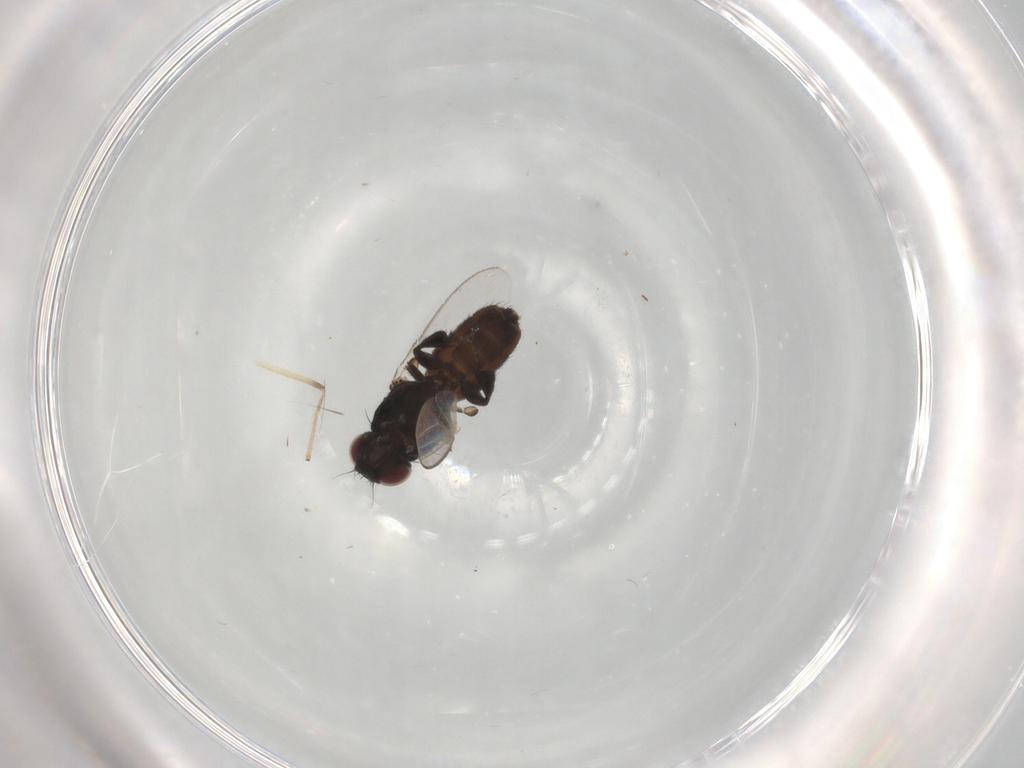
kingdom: Animalia
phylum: Arthropoda
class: Insecta
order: Diptera
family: Milichiidae
